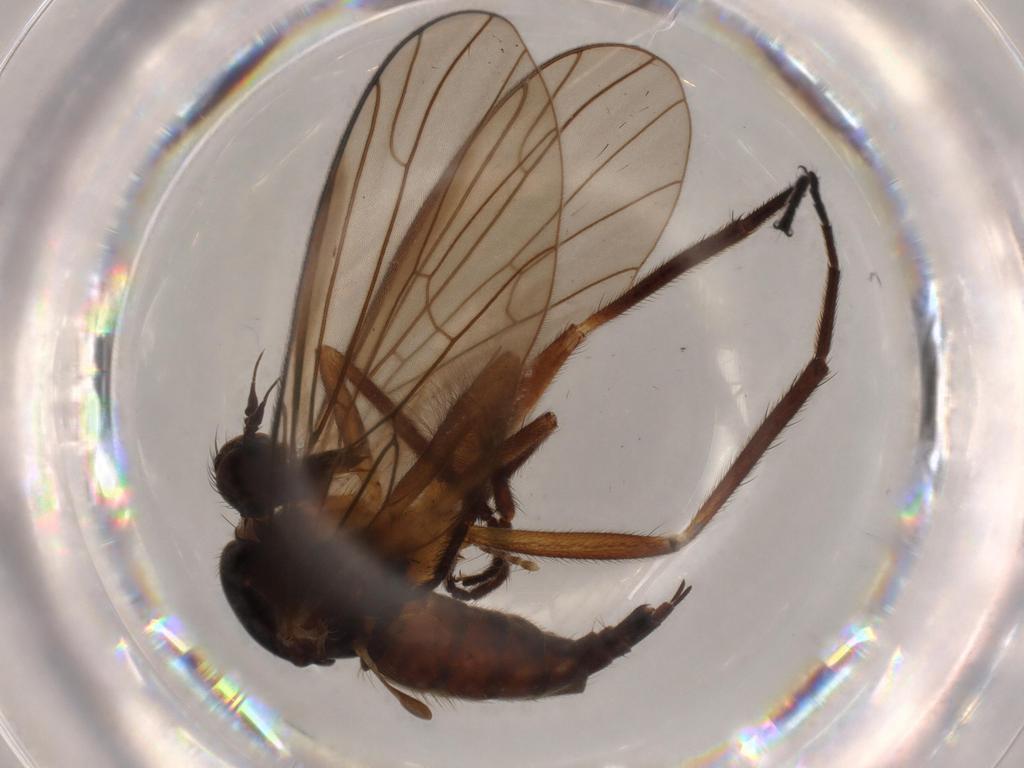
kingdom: Animalia
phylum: Arthropoda
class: Insecta
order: Diptera
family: Empididae
